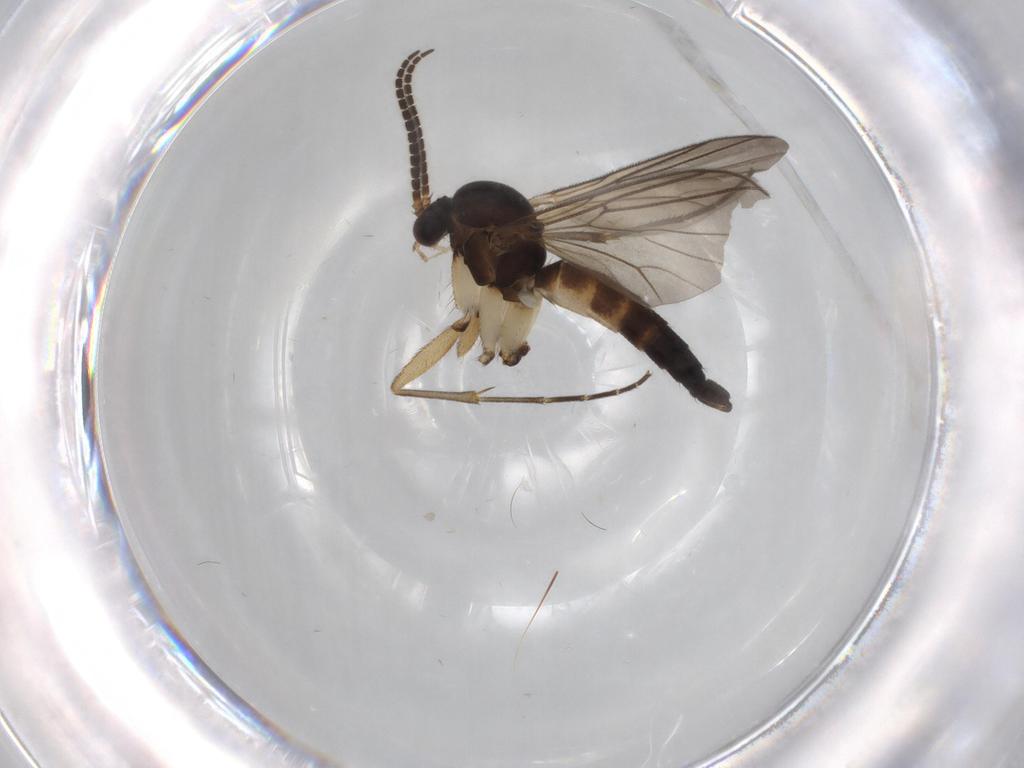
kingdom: Animalia
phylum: Arthropoda
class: Insecta
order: Diptera
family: Mycetophilidae
